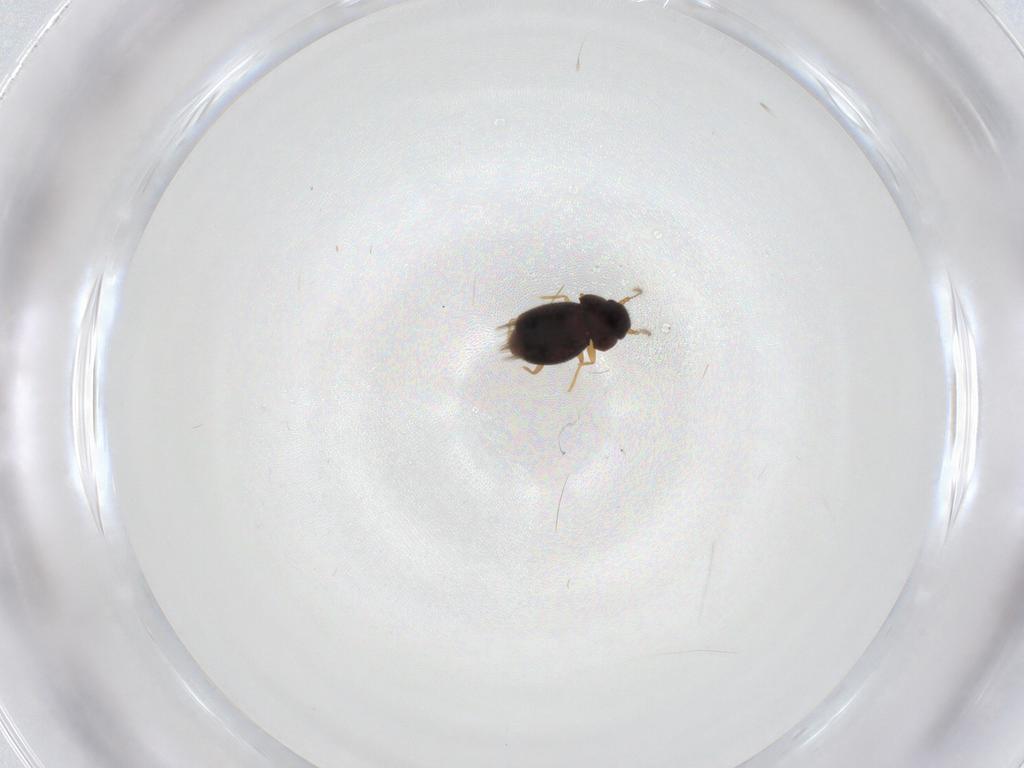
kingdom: Animalia
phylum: Arthropoda
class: Insecta
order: Coleoptera
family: Ptiliidae
